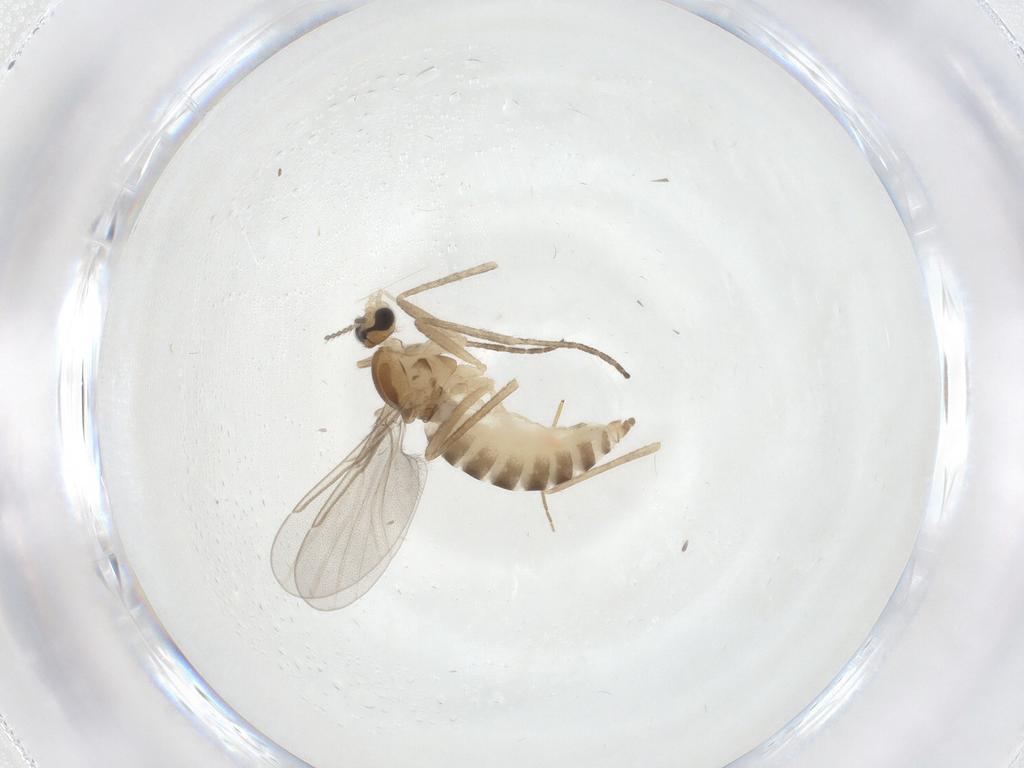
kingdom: Animalia
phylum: Arthropoda
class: Insecta
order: Diptera
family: Cecidomyiidae
